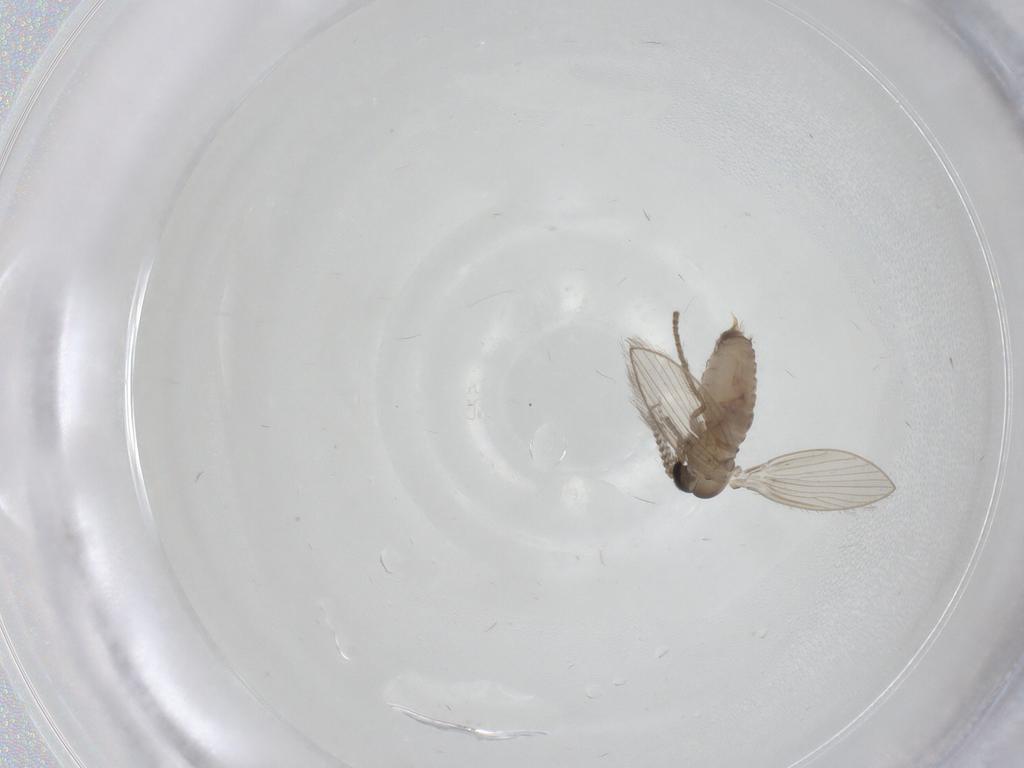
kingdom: Animalia
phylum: Arthropoda
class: Insecta
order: Diptera
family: Psychodidae
